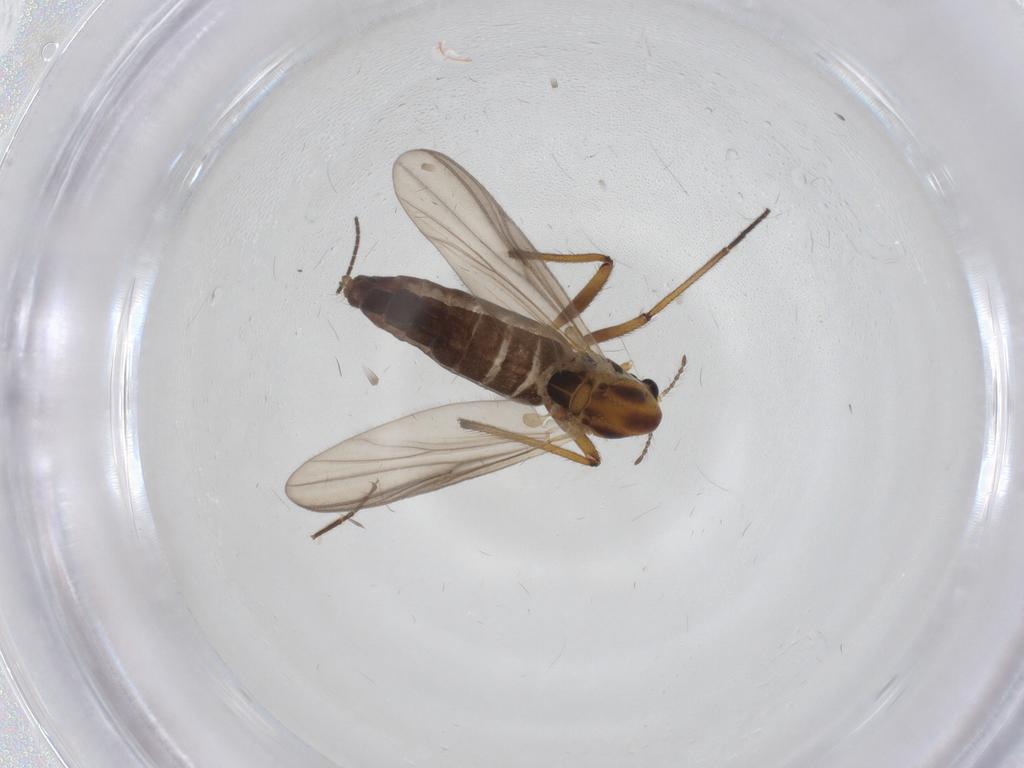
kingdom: Animalia
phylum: Arthropoda
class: Insecta
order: Diptera
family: Chironomidae
